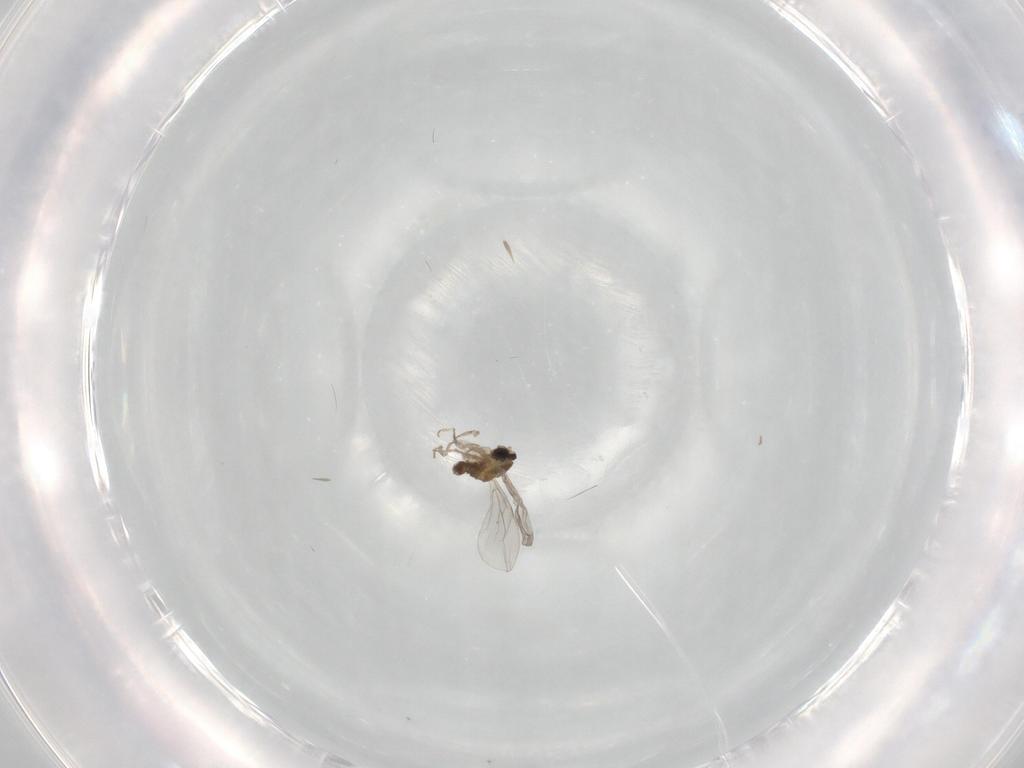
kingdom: Animalia
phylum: Arthropoda
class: Insecta
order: Diptera
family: Cecidomyiidae
